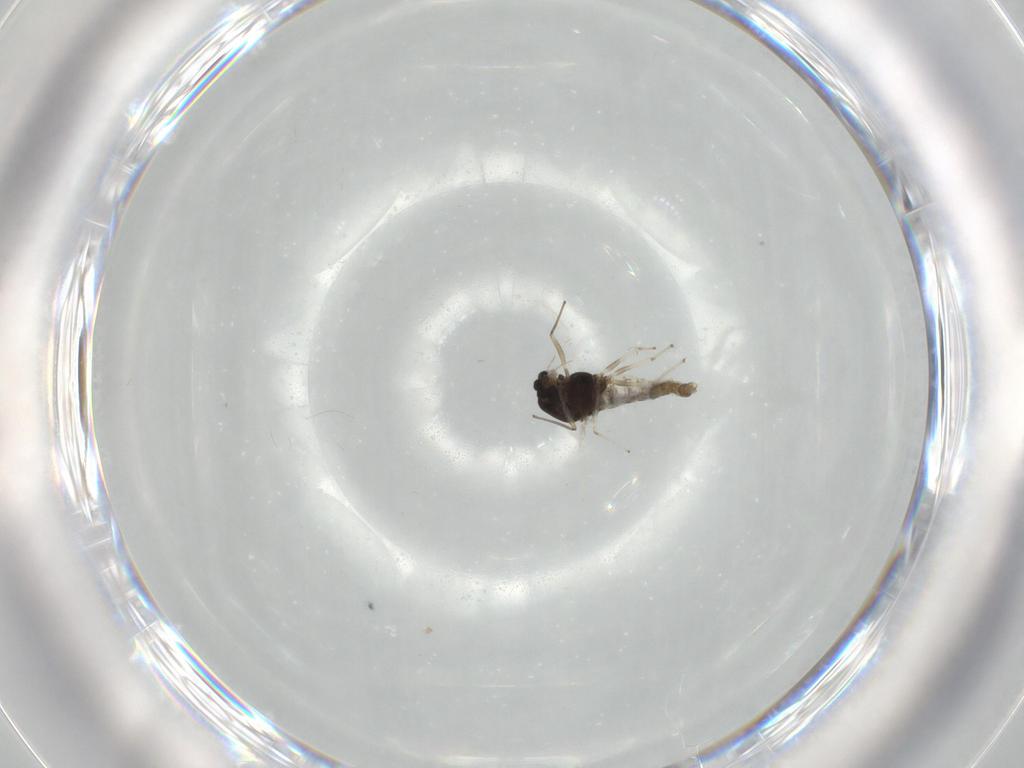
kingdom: Animalia
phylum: Arthropoda
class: Insecta
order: Diptera
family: Chironomidae
